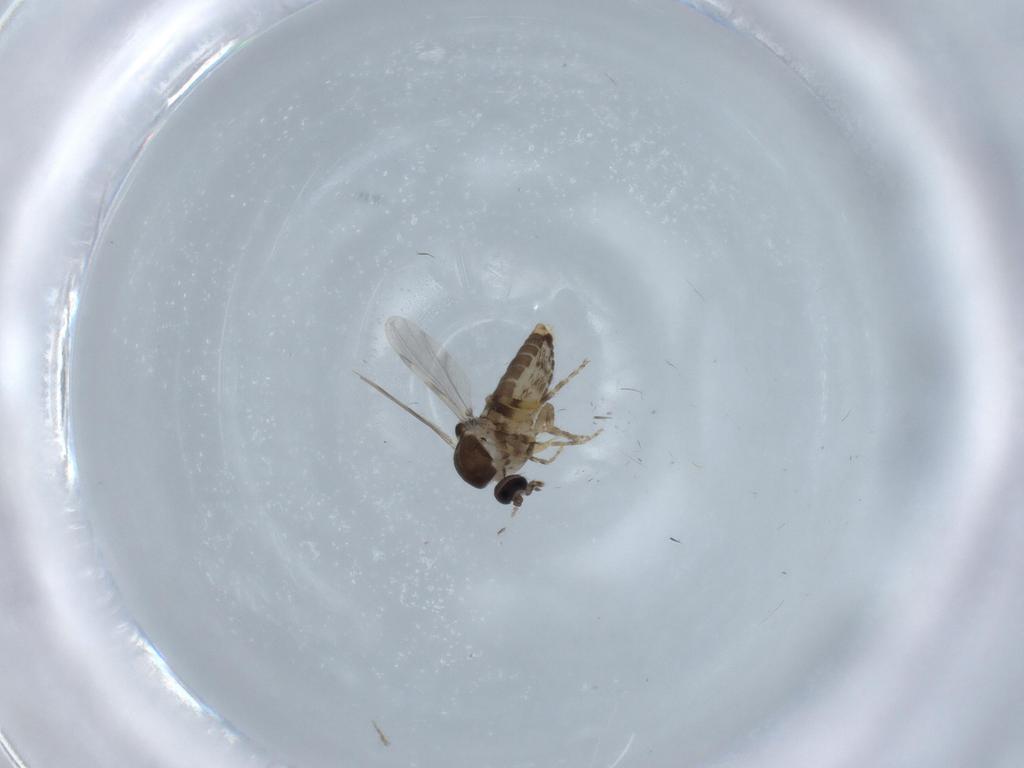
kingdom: Animalia
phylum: Arthropoda
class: Insecta
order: Diptera
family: Ceratopogonidae
